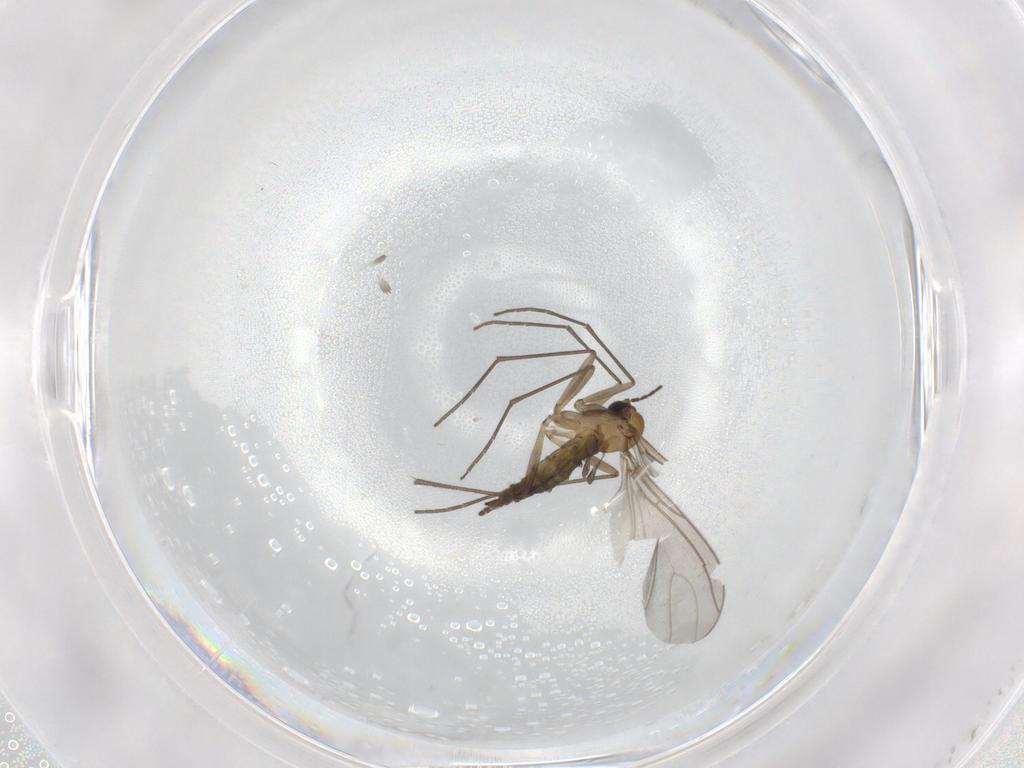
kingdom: Animalia
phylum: Arthropoda
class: Insecta
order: Diptera
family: Sciaridae
